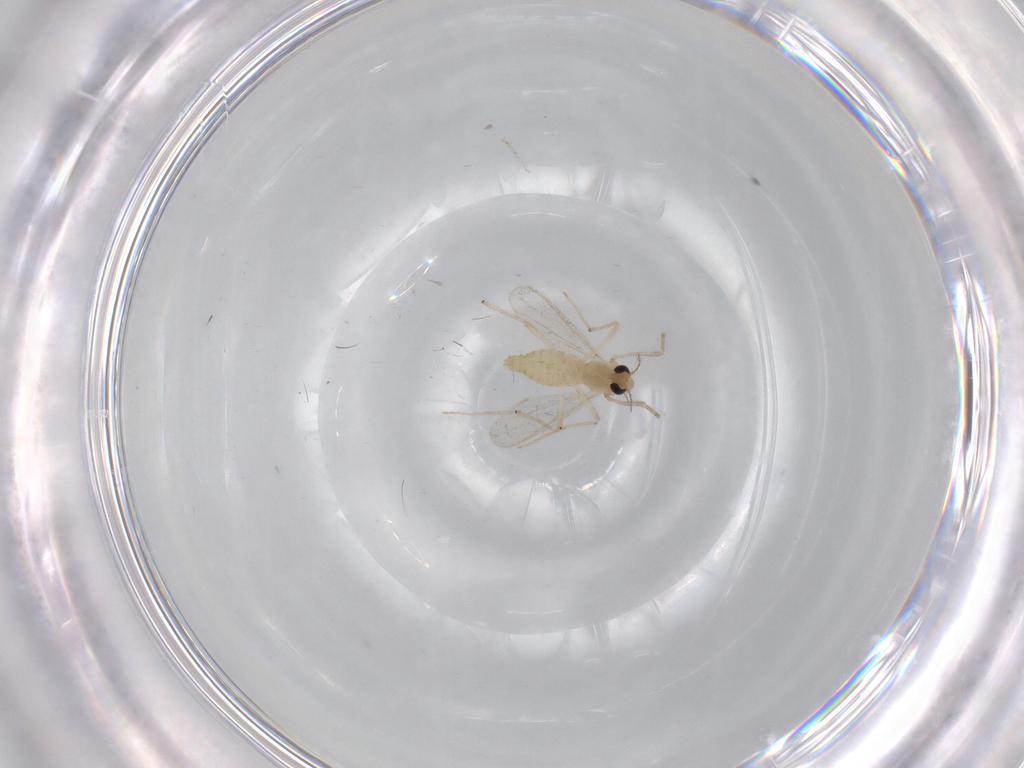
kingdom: Animalia
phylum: Arthropoda
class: Insecta
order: Diptera
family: Chironomidae
